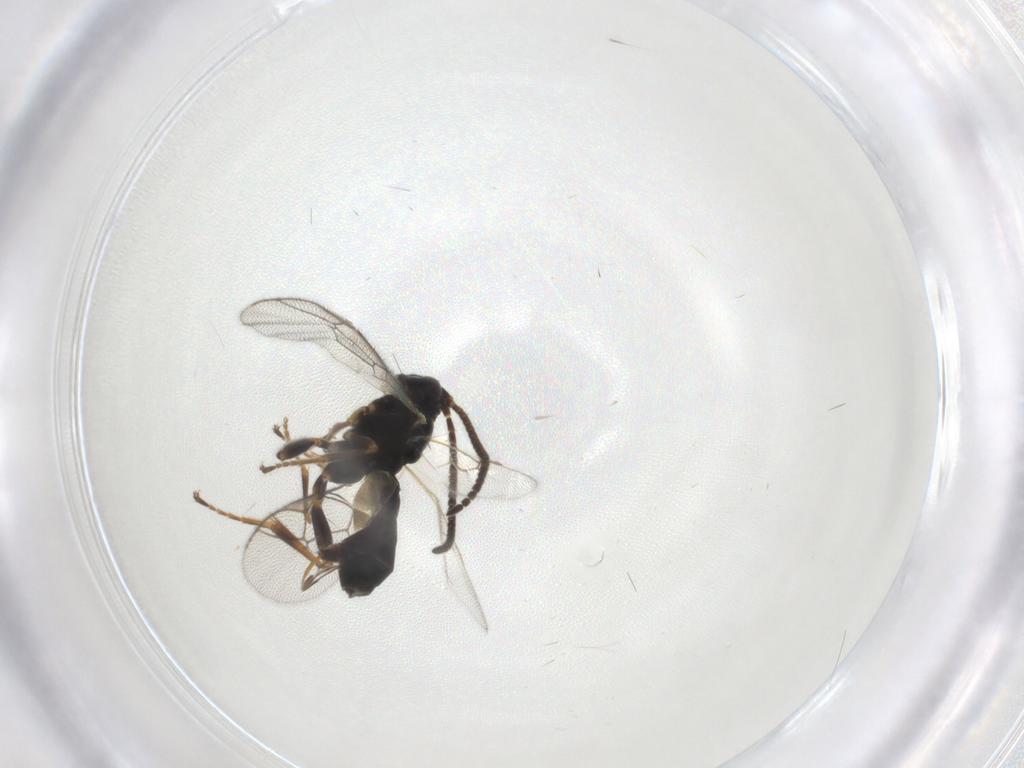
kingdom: Animalia
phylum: Arthropoda
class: Insecta
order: Hymenoptera
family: Ichneumonidae
